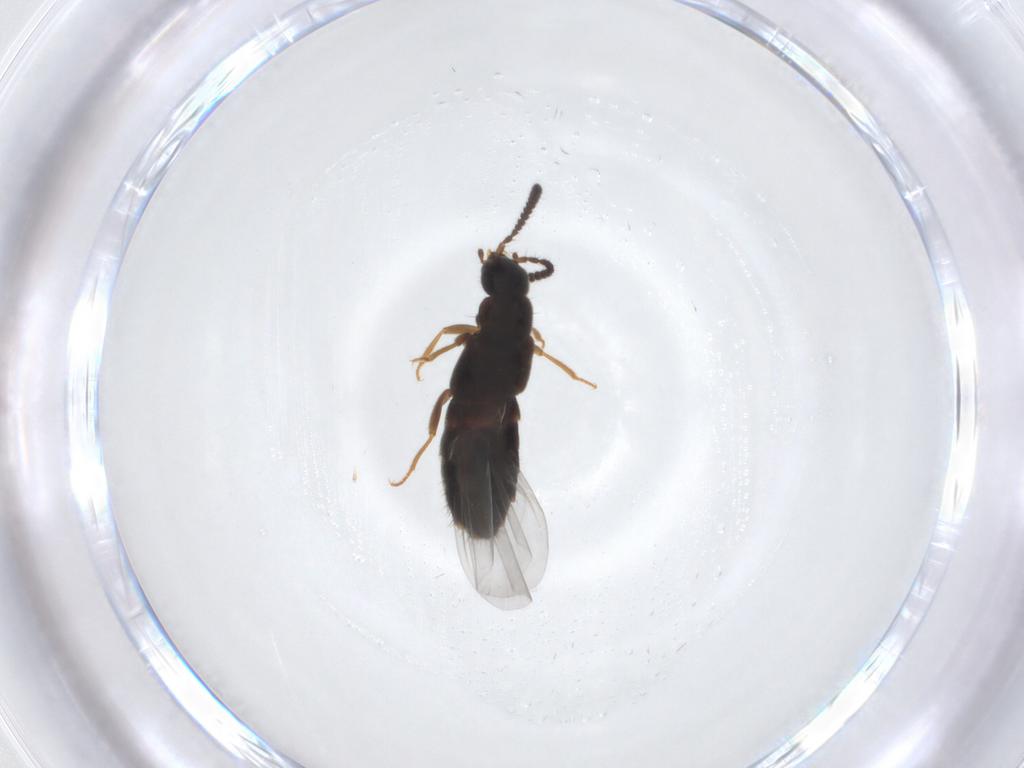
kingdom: Animalia
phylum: Arthropoda
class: Insecta
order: Coleoptera
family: Staphylinidae
